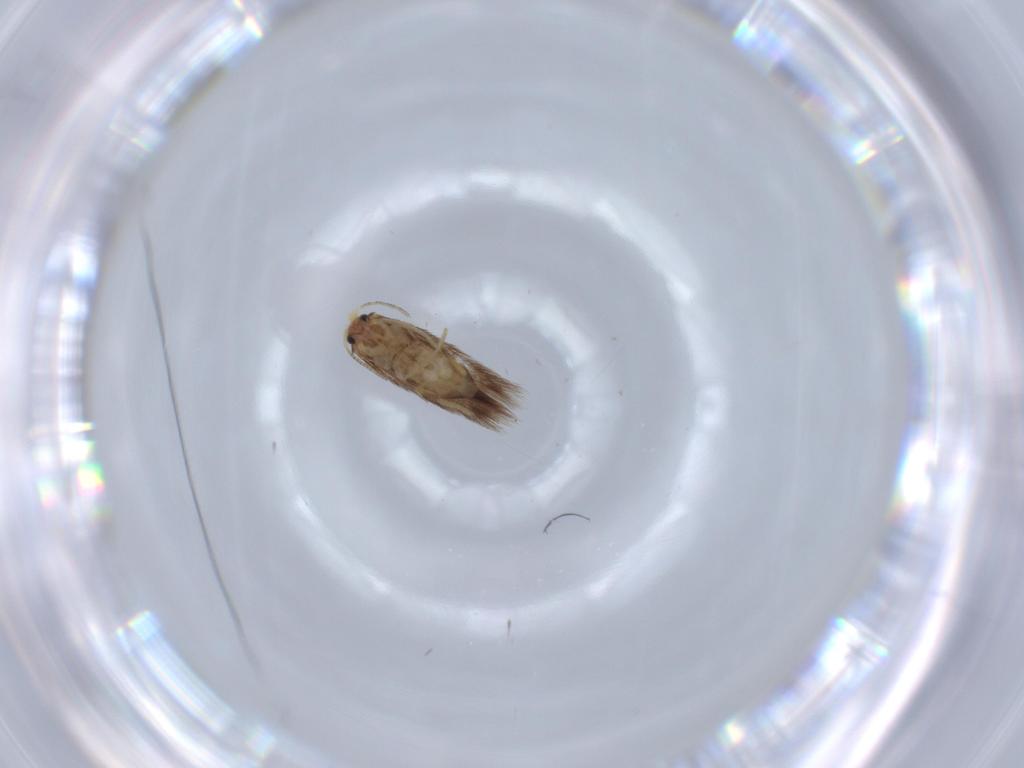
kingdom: Animalia
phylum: Arthropoda
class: Insecta
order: Lepidoptera
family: Nepticulidae
